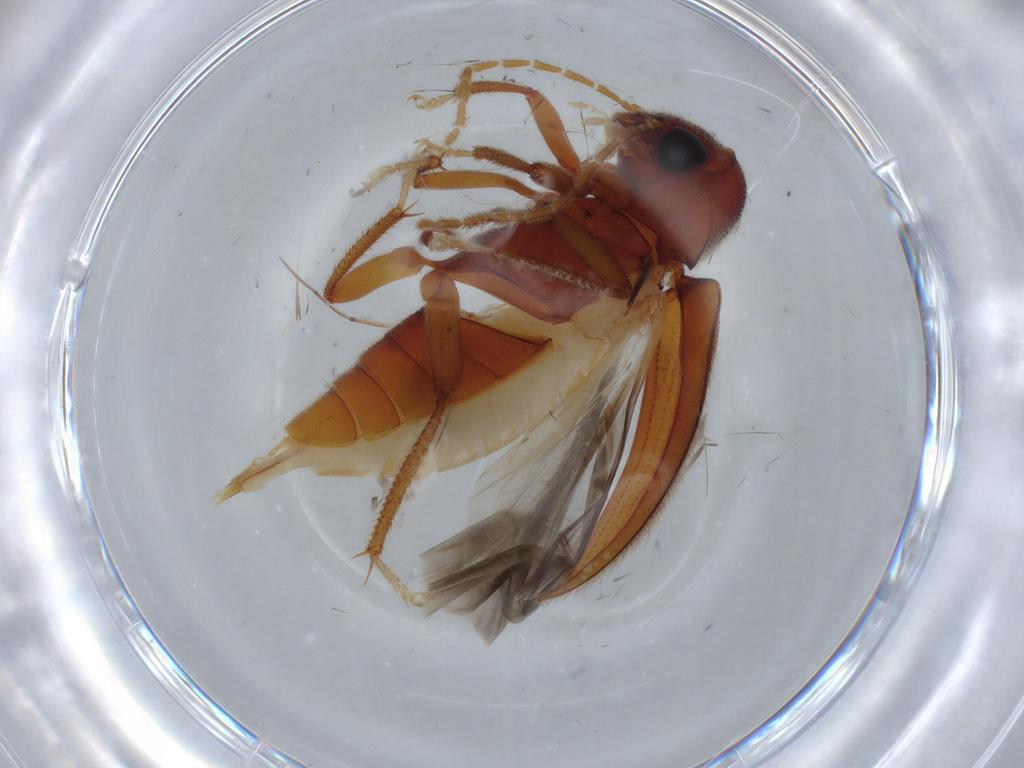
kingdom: Animalia
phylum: Arthropoda
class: Insecta
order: Coleoptera
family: Ptilodactylidae
